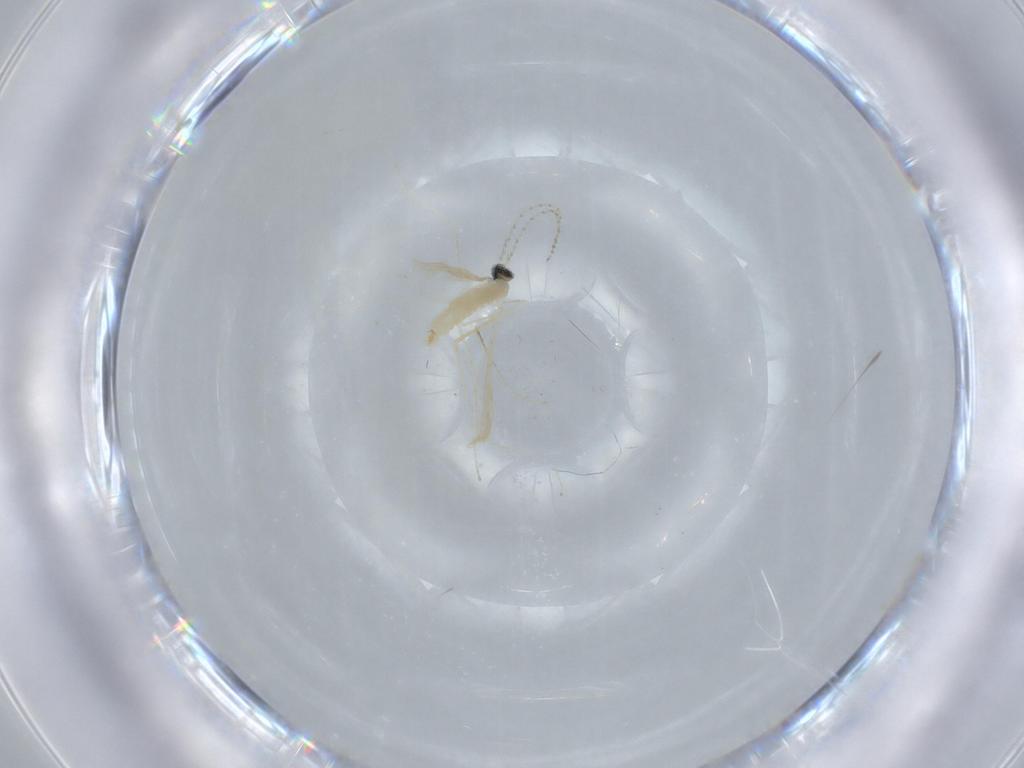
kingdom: Animalia
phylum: Arthropoda
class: Insecta
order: Diptera
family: Cecidomyiidae
